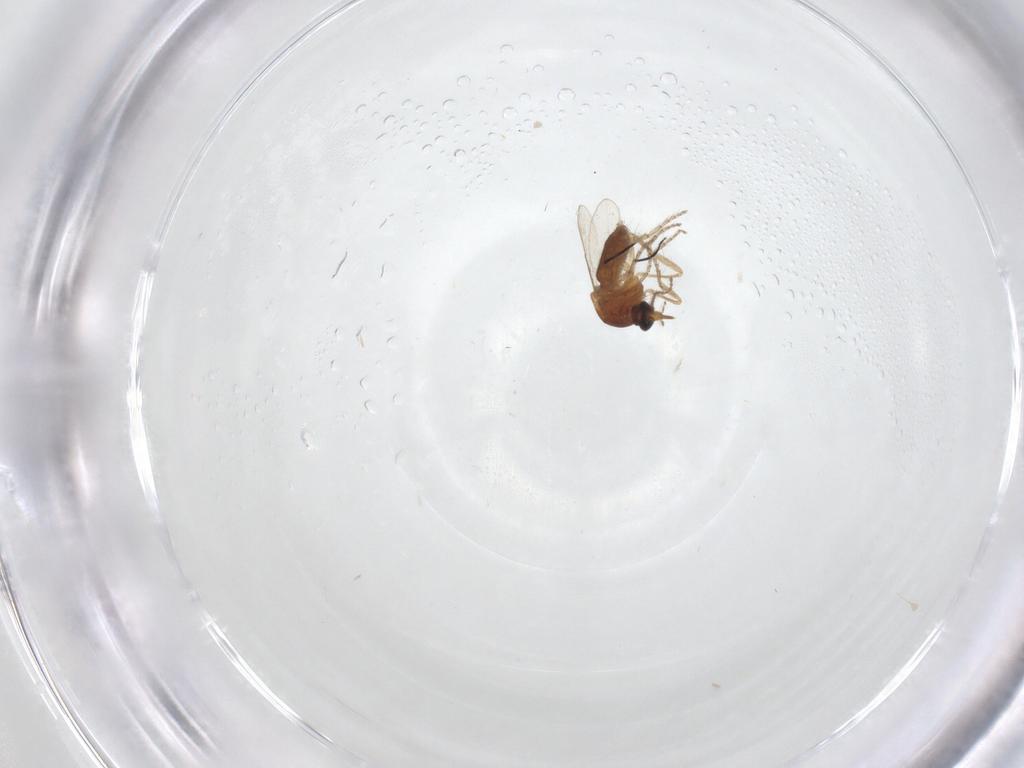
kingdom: Animalia
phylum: Arthropoda
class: Insecta
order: Diptera
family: Ceratopogonidae
